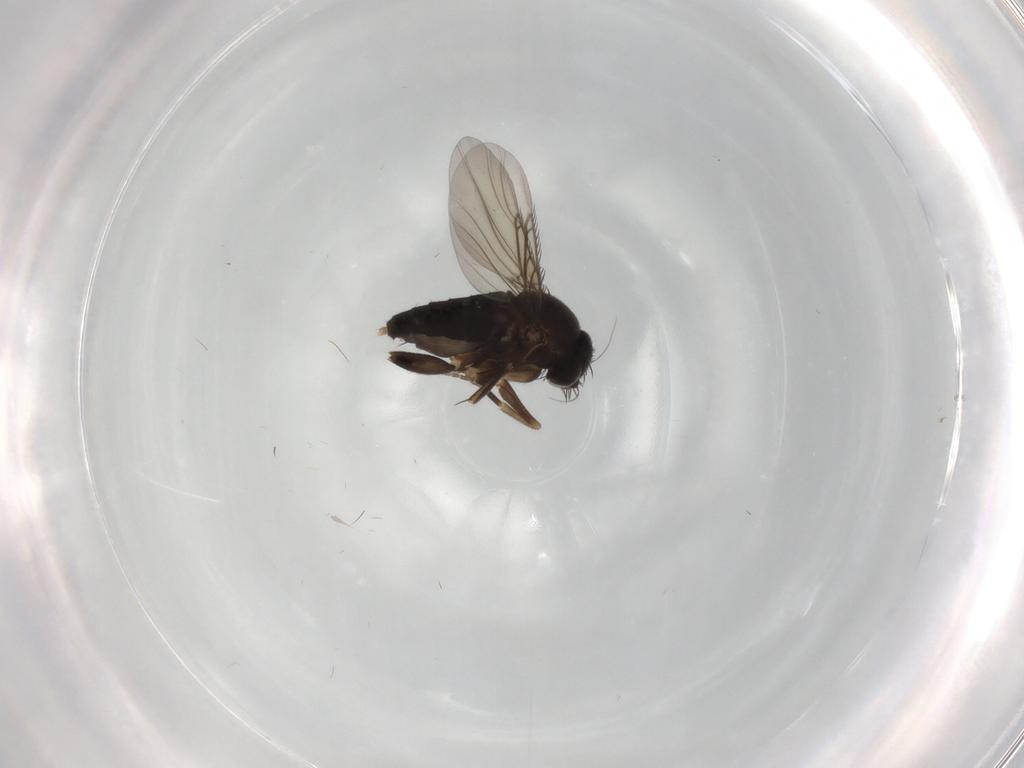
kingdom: Animalia
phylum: Arthropoda
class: Insecta
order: Diptera
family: Phoridae
